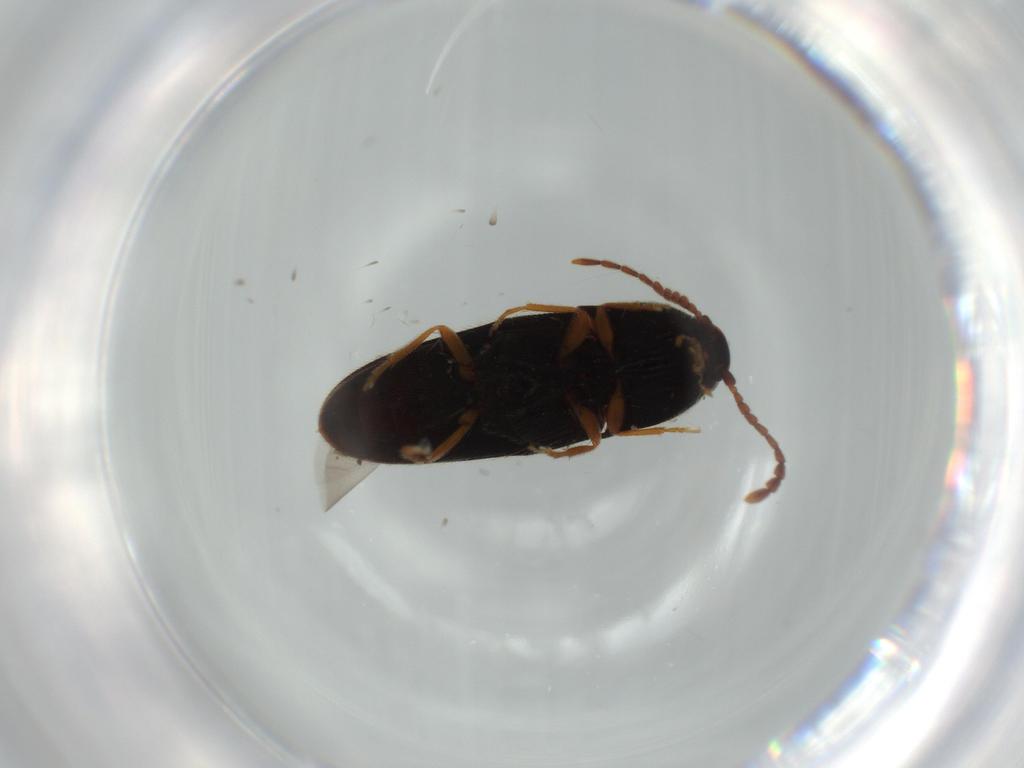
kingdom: Animalia
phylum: Arthropoda
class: Insecta
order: Coleoptera
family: Elateridae
